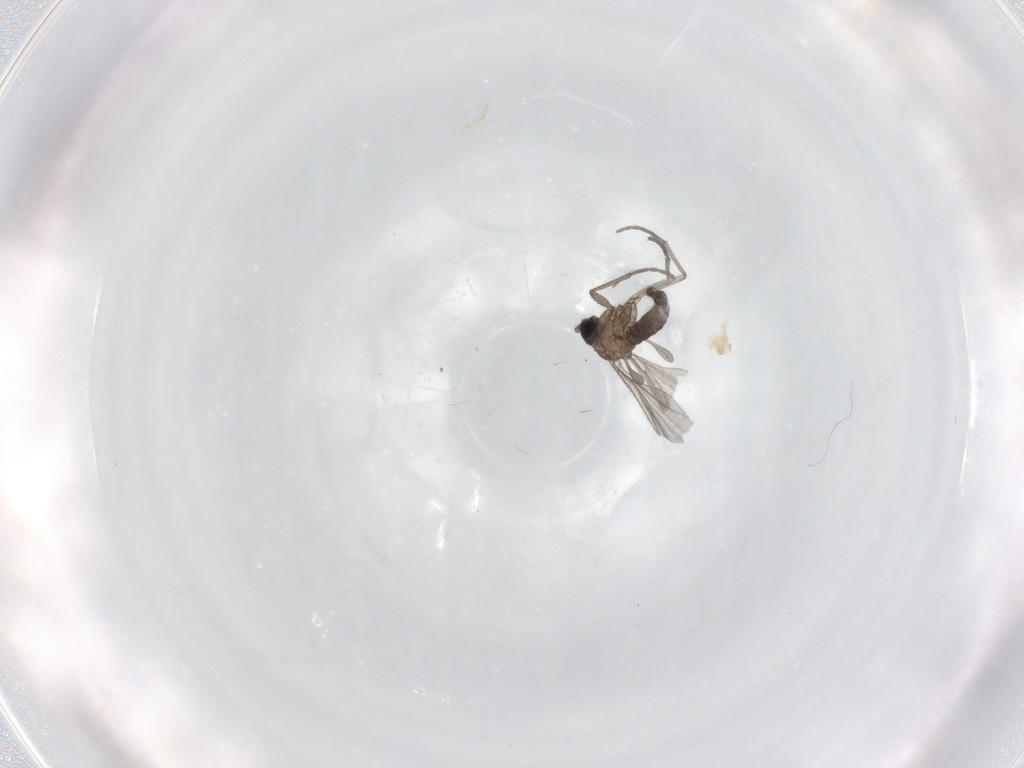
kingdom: Animalia
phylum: Arthropoda
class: Insecta
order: Diptera
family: Sciaridae
